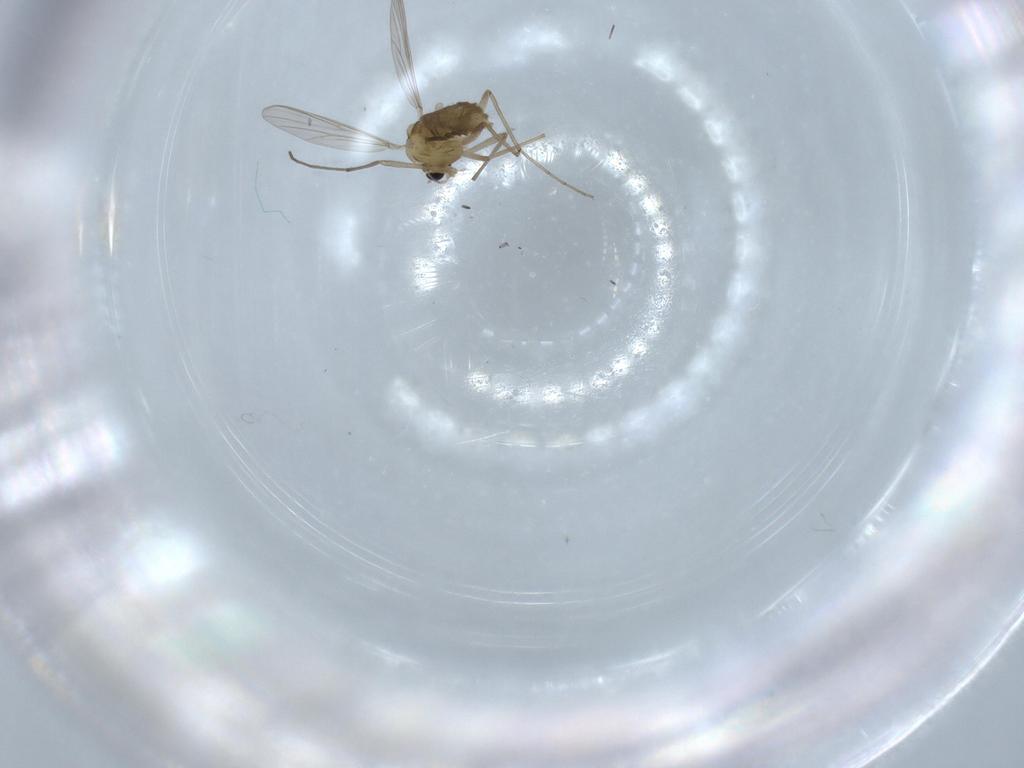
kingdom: Animalia
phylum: Arthropoda
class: Insecta
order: Diptera
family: Chironomidae
